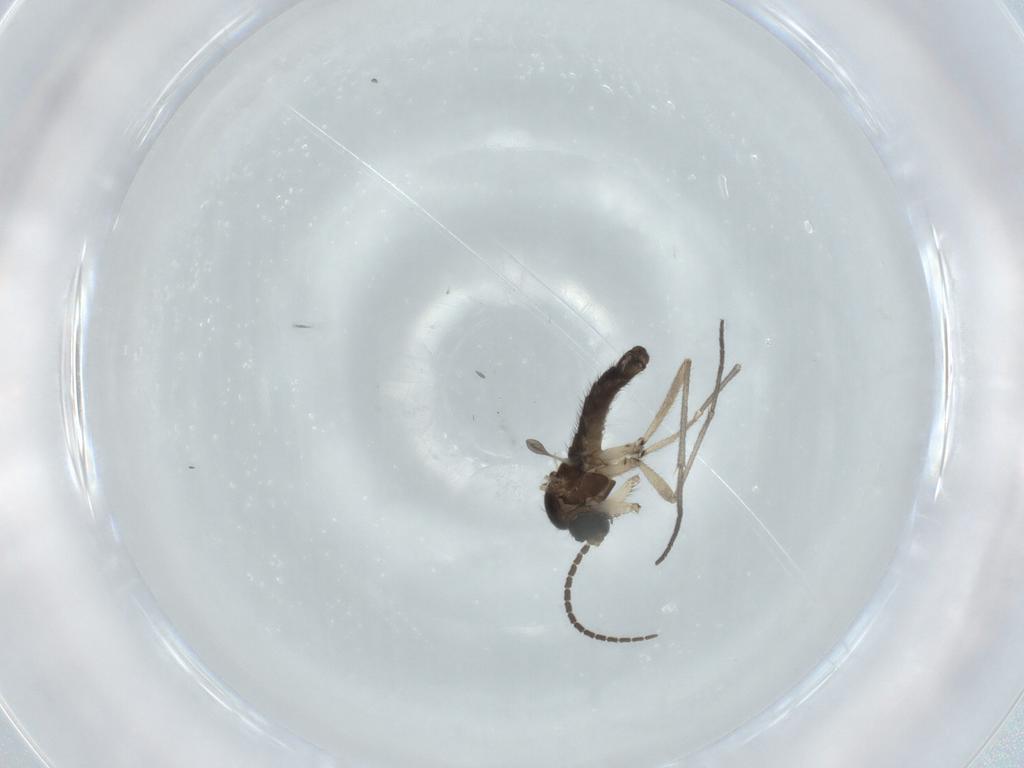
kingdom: Animalia
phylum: Arthropoda
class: Insecta
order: Diptera
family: Sciaridae
